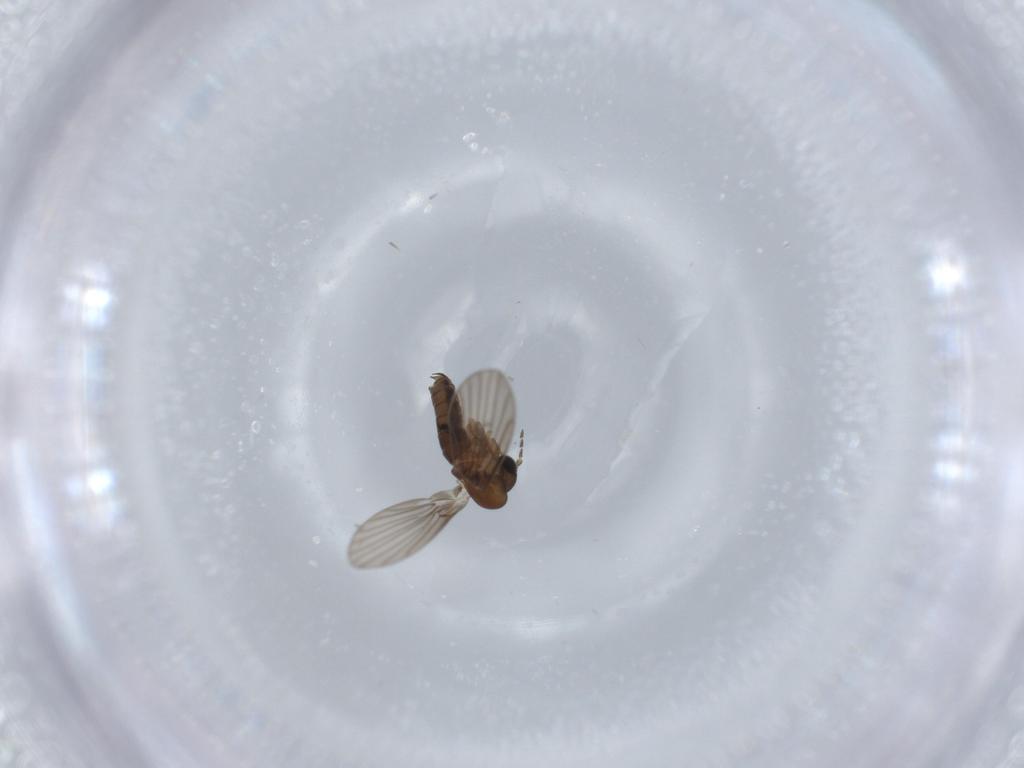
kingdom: Animalia
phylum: Arthropoda
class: Insecta
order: Diptera
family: Psychodidae
